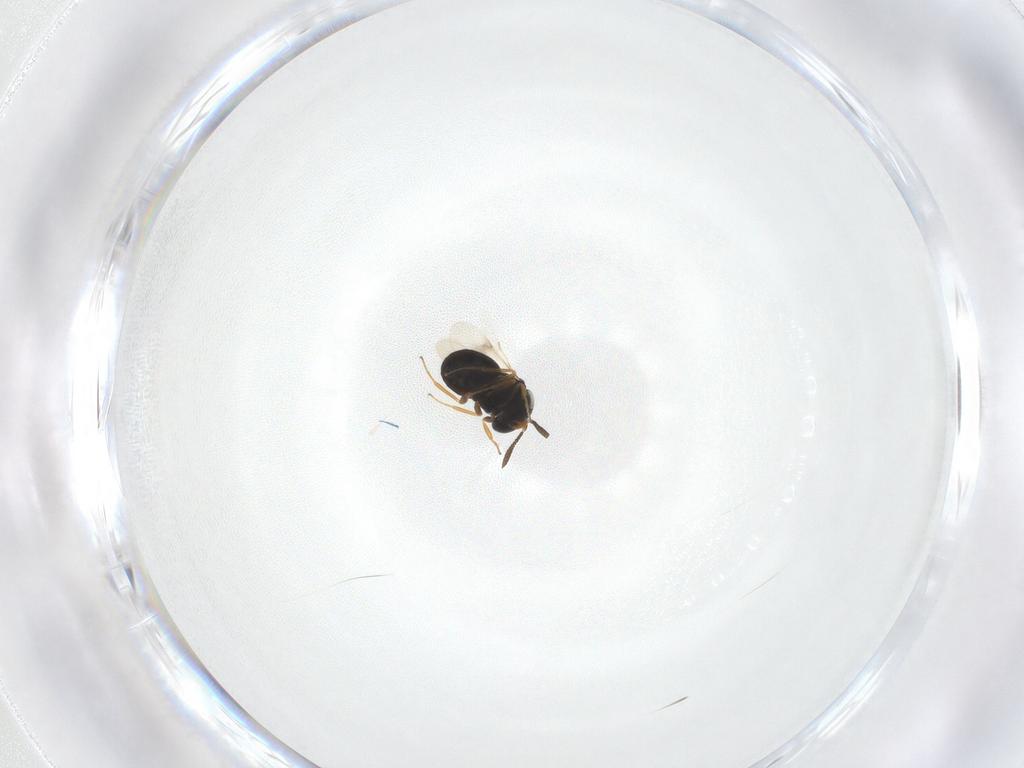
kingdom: Animalia
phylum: Arthropoda
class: Insecta
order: Hymenoptera
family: Scelionidae
